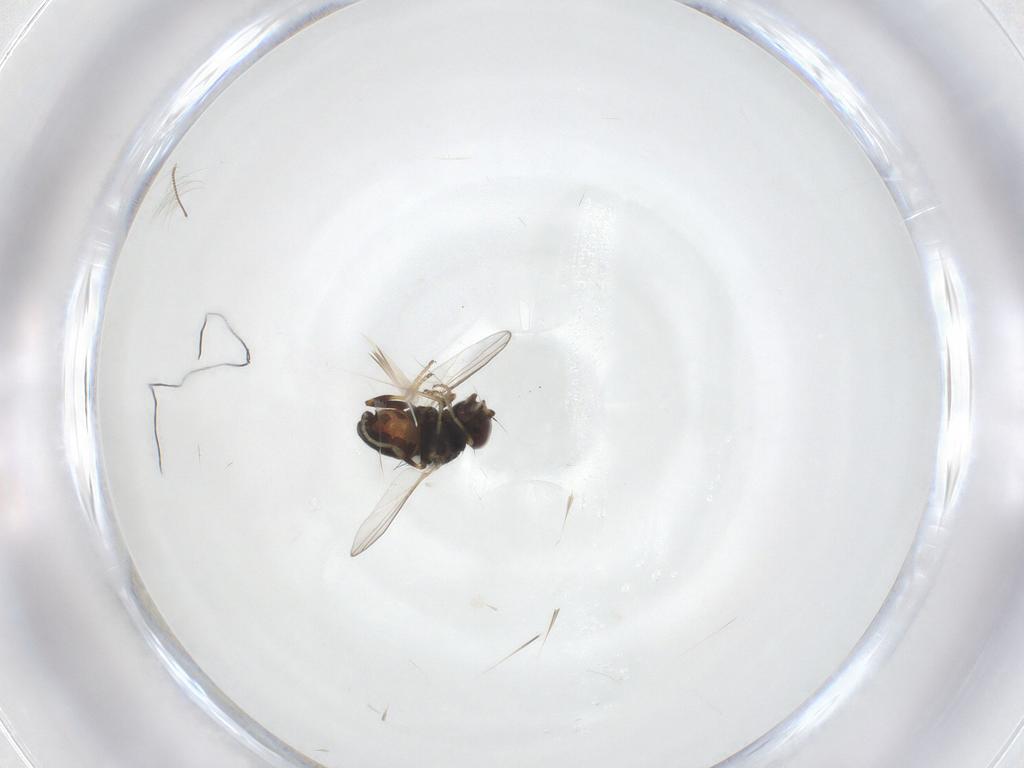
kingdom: Animalia
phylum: Arthropoda
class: Insecta
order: Diptera
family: Chloropidae
